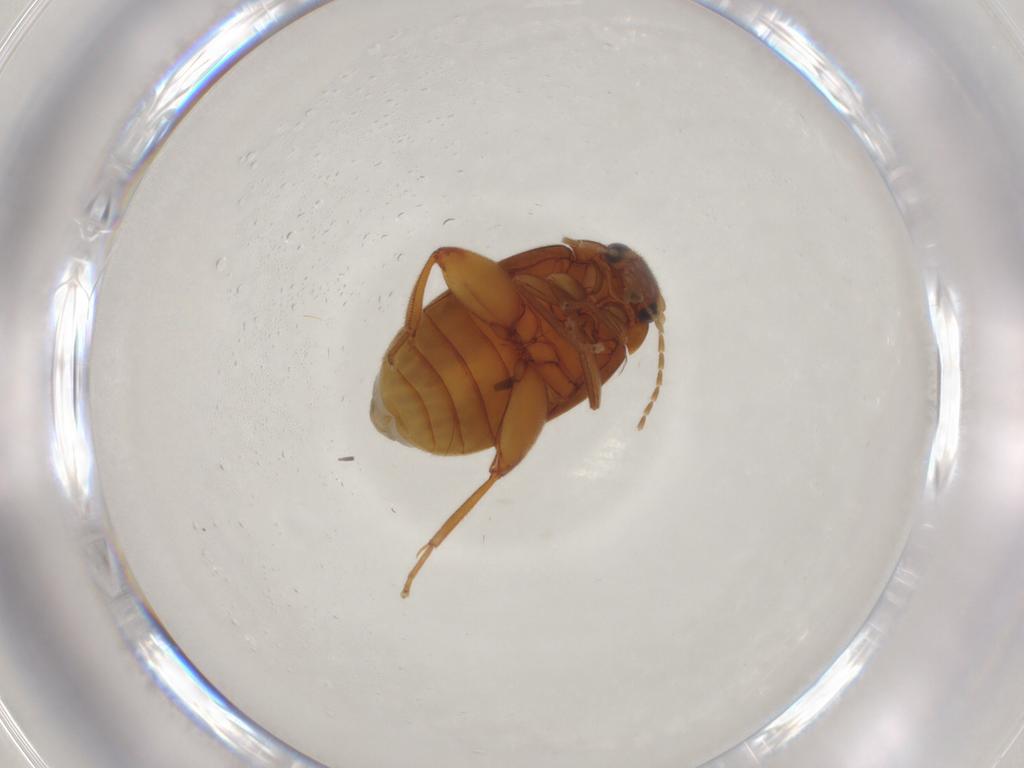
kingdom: Animalia
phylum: Arthropoda
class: Insecta
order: Coleoptera
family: Scirtidae
